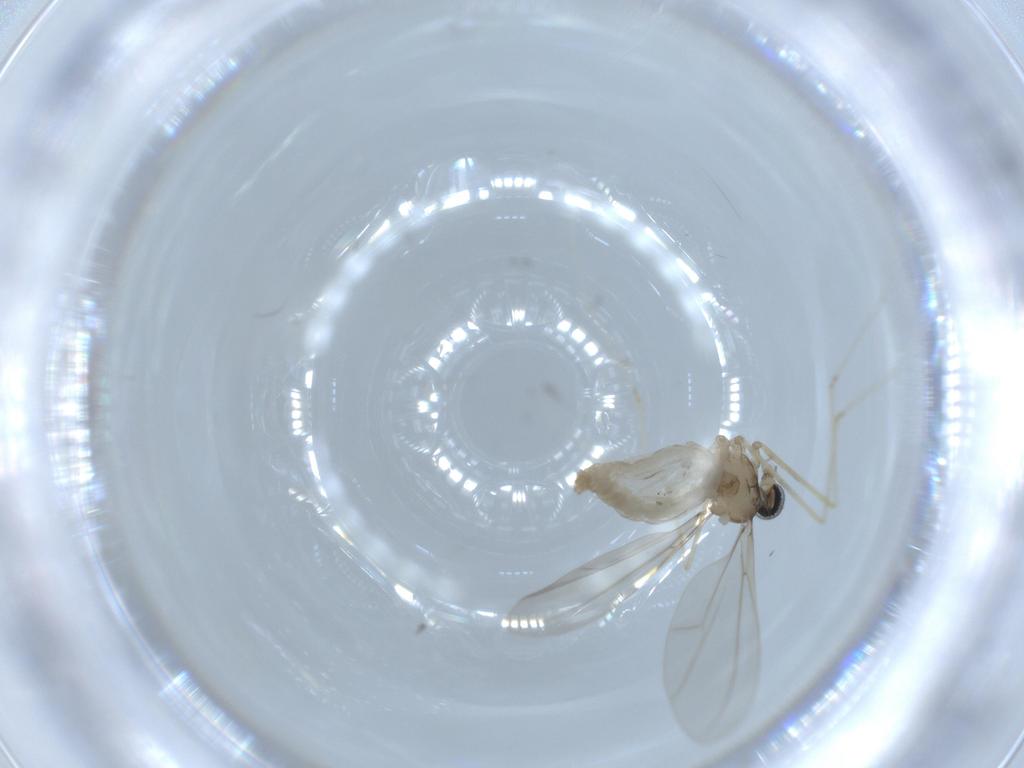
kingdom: Animalia
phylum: Arthropoda
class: Insecta
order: Diptera
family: Cecidomyiidae
